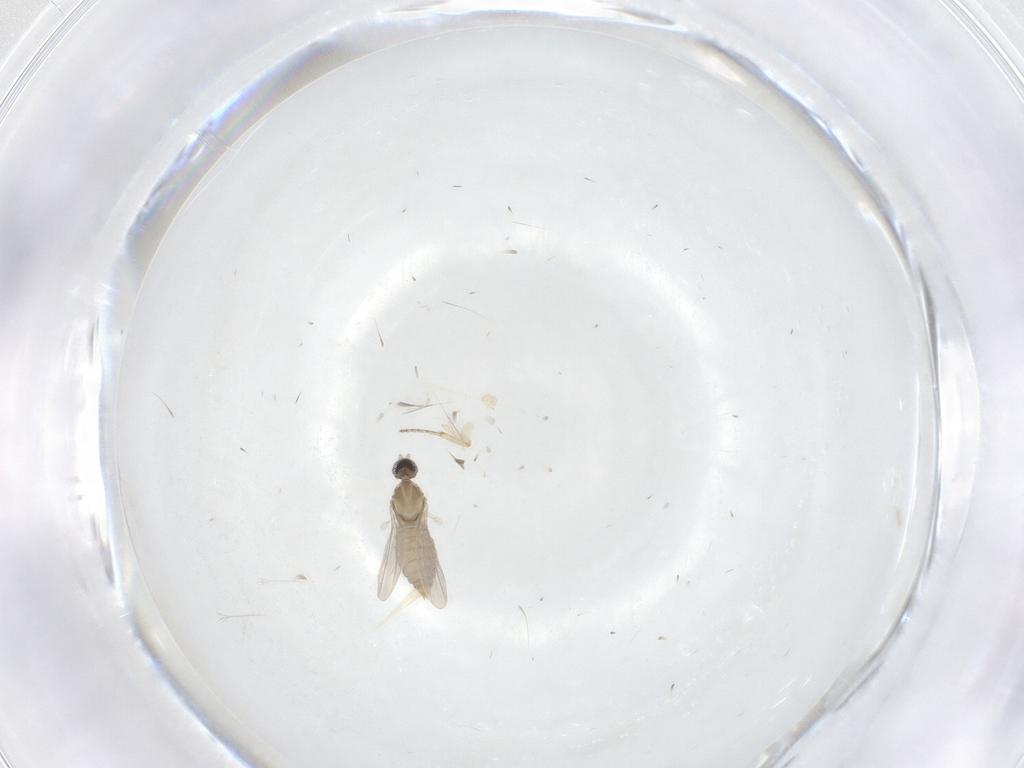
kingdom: Animalia
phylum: Arthropoda
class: Insecta
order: Diptera
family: Cecidomyiidae
